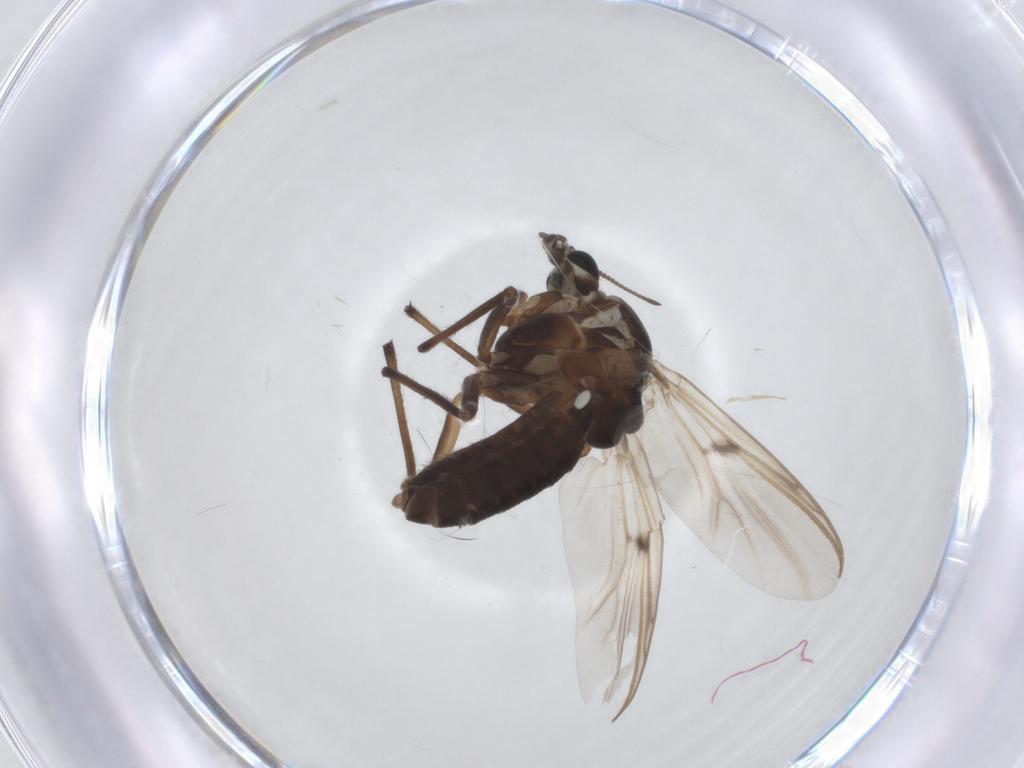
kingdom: Animalia
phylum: Arthropoda
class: Insecta
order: Diptera
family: Chironomidae
